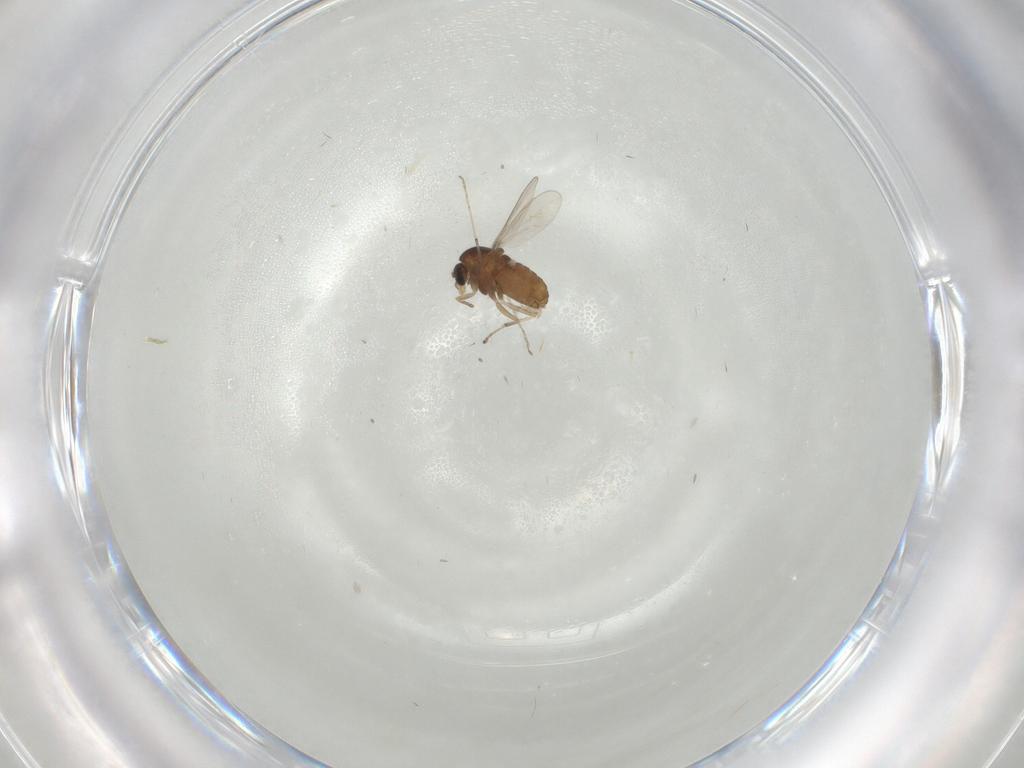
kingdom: Animalia
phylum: Arthropoda
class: Insecta
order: Diptera
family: Chironomidae
